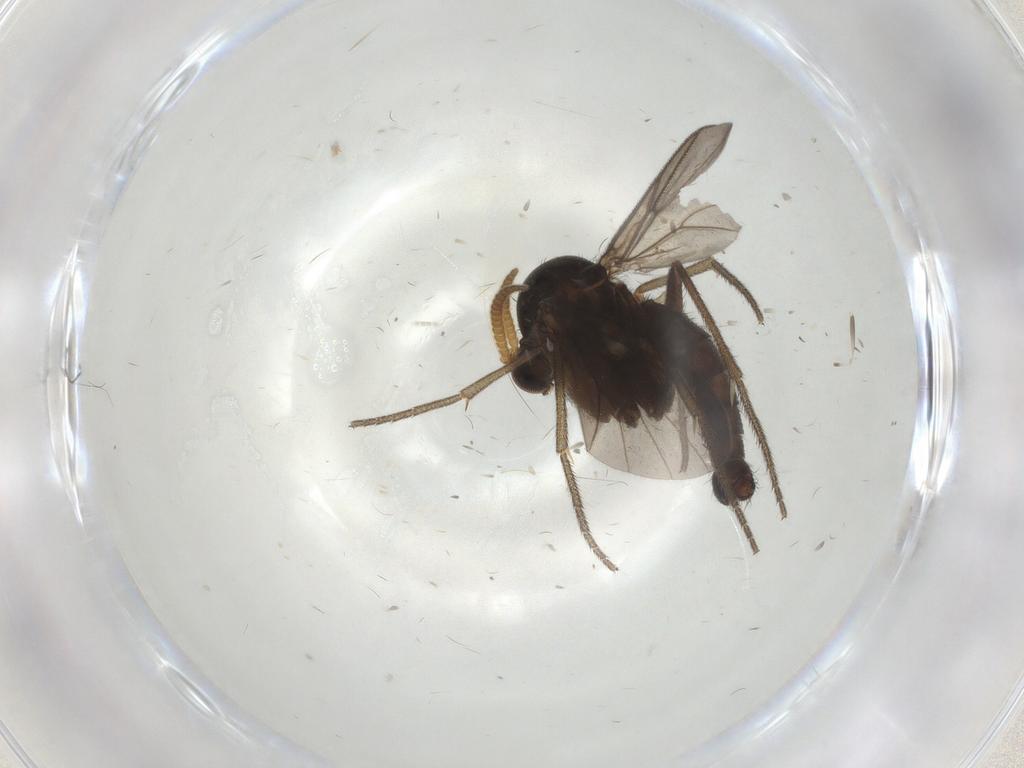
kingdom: Animalia
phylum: Arthropoda
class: Insecta
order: Diptera
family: Mycetophilidae
